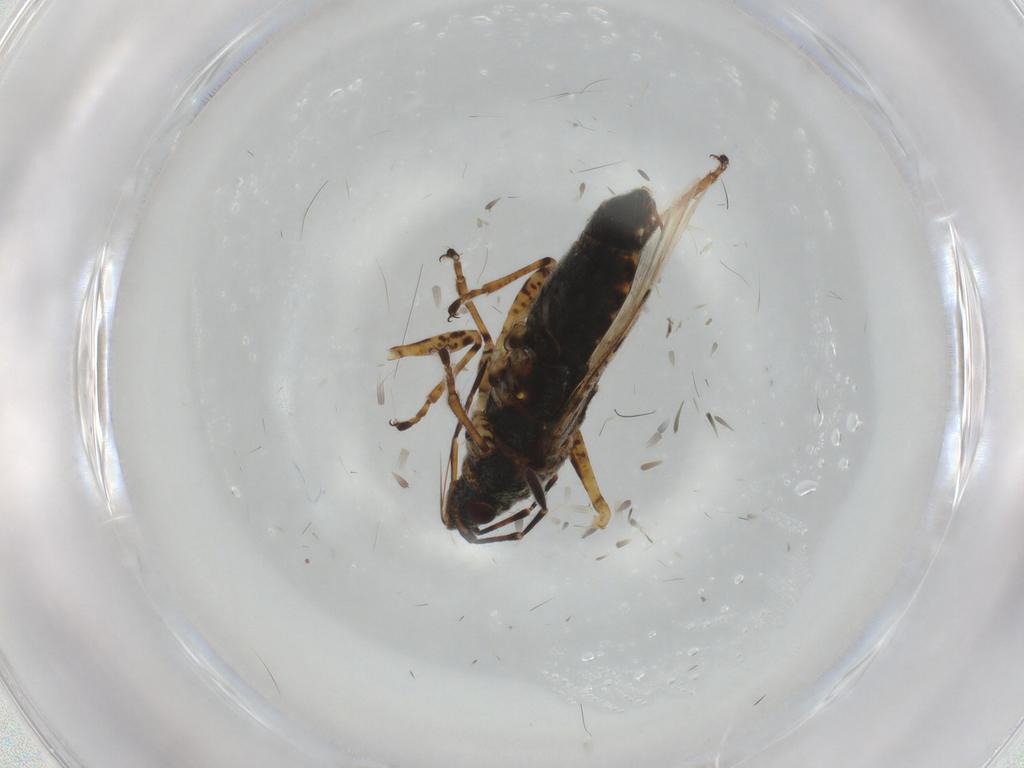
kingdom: Animalia
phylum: Arthropoda
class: Insecta
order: Hemiptera
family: Lygaeidae
